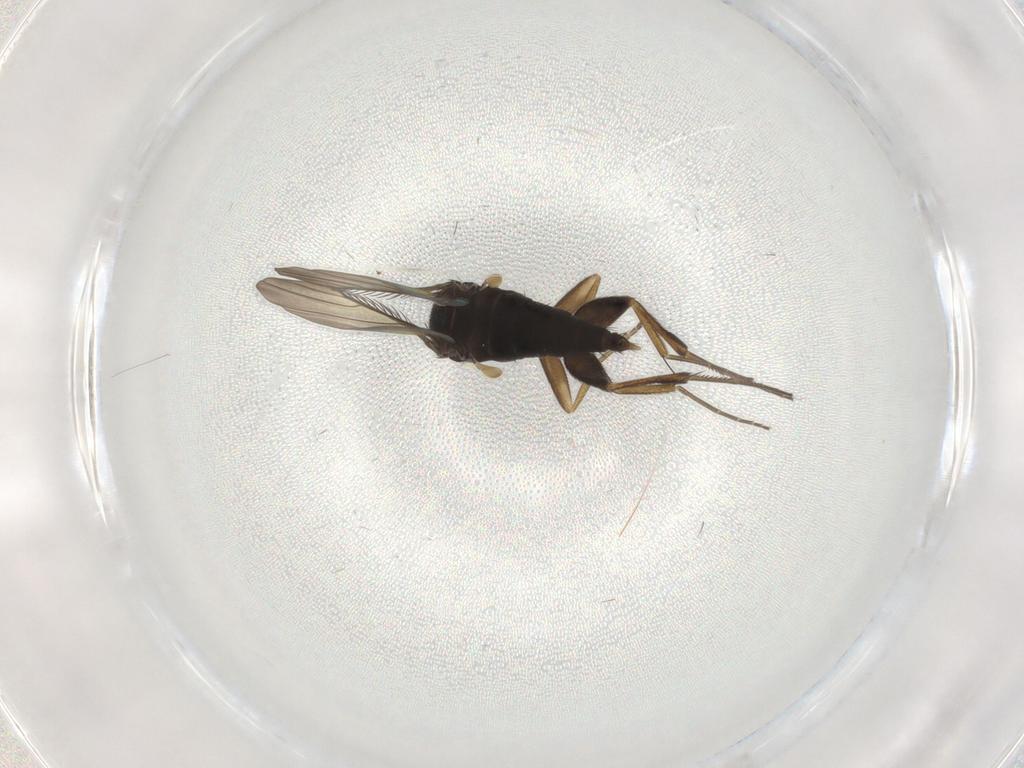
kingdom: Animalia
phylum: Arthropoda
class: Insecta
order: Diptera
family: Phoridae
